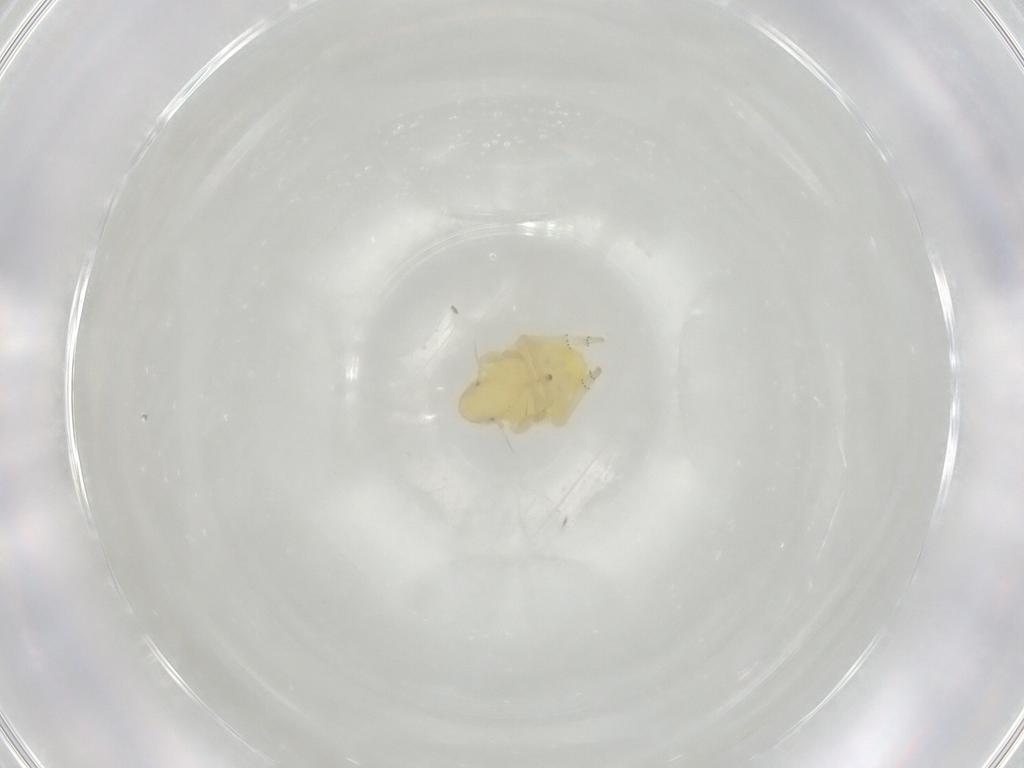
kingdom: Animalia
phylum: Arthropoda
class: Insecta
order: Hemiptera
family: Tropiduchidae
